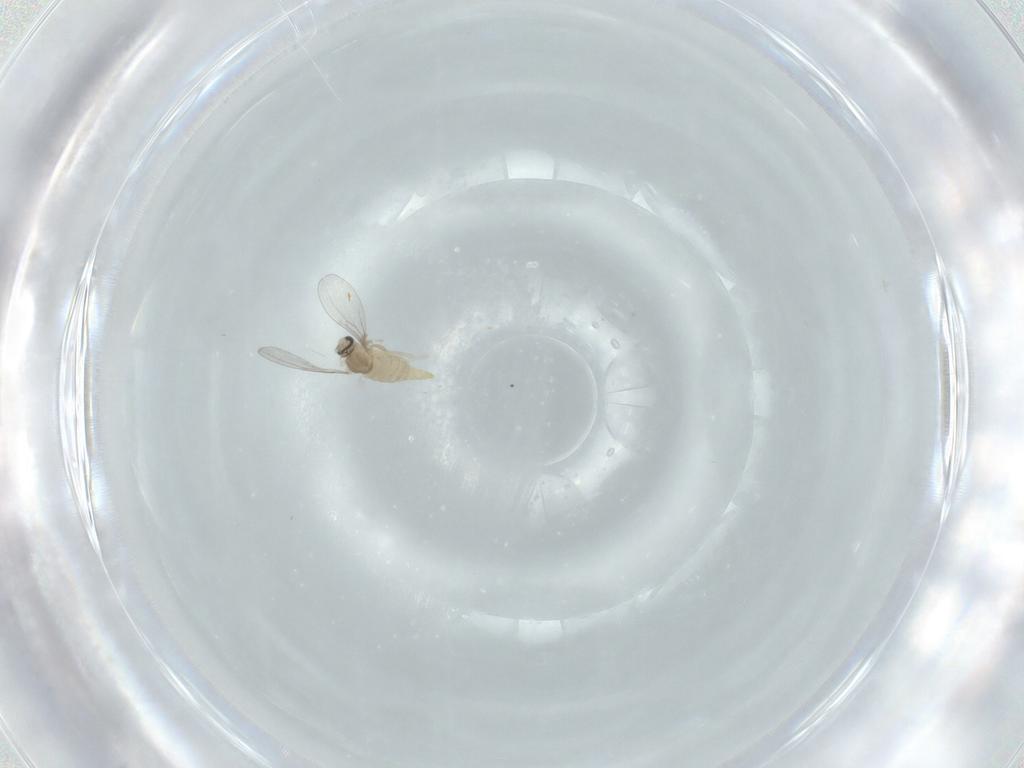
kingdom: Animalia
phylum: Arthropoda
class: Insecta
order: Diptera
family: Cecidomyiidae
